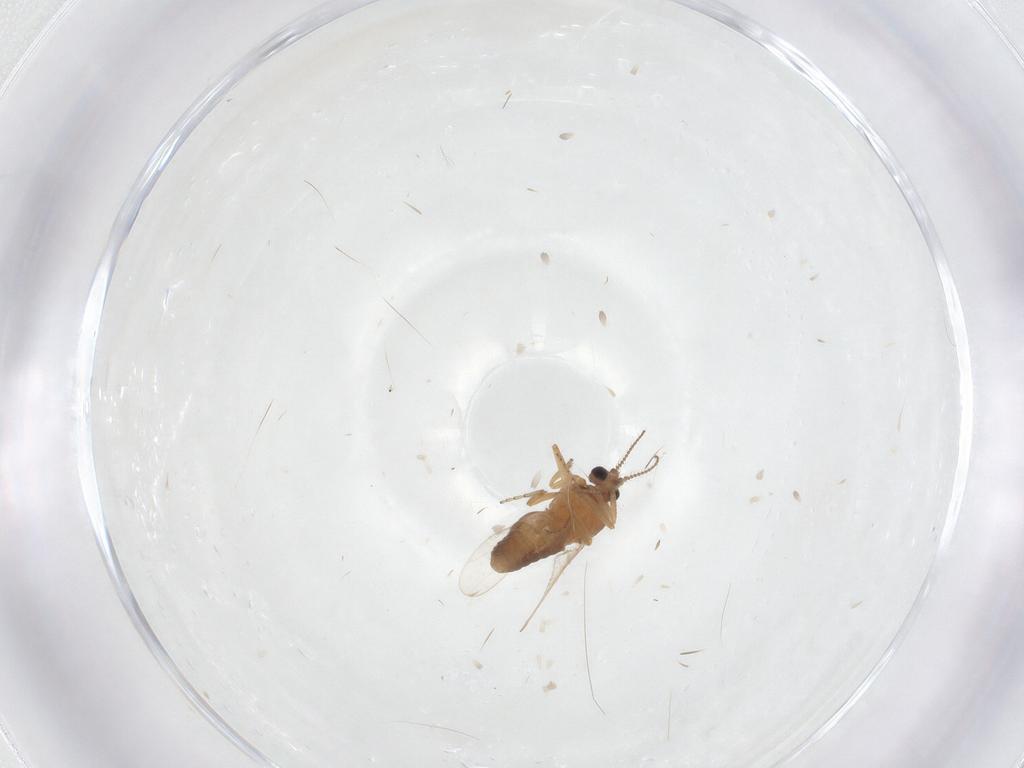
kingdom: Animalia
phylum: Arthropoda
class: Insecta
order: Diptera
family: Ceratopogonidae
